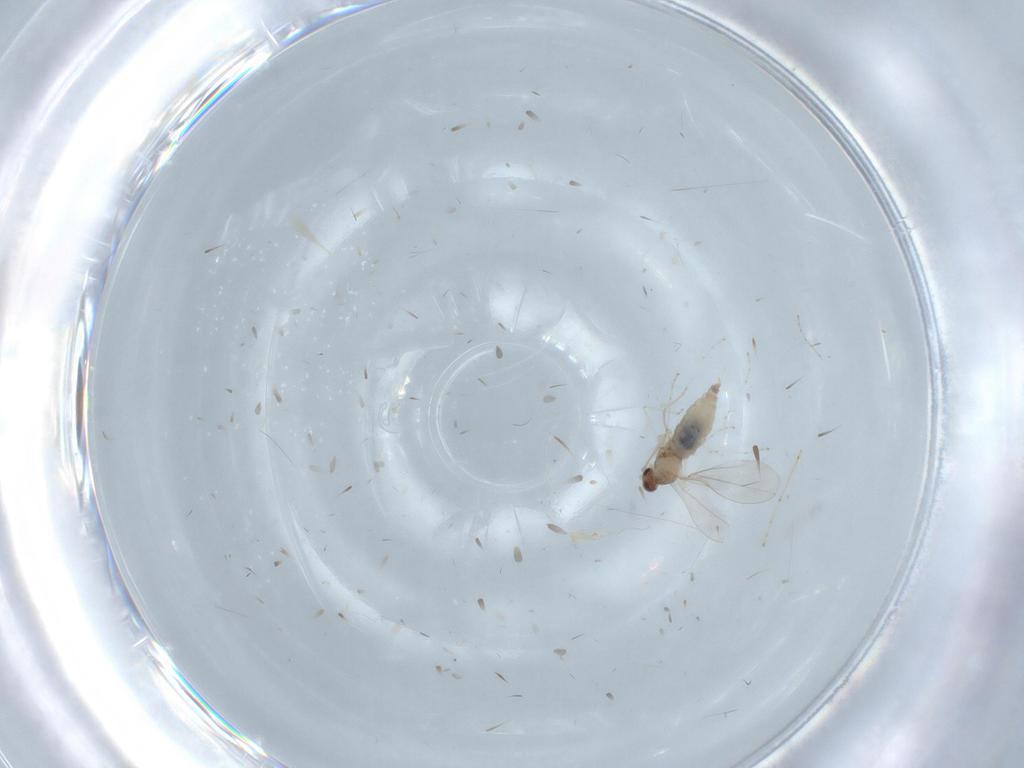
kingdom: Animalia
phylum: Arthropoda
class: Insecta
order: Diptera
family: Cecidomyiidae
